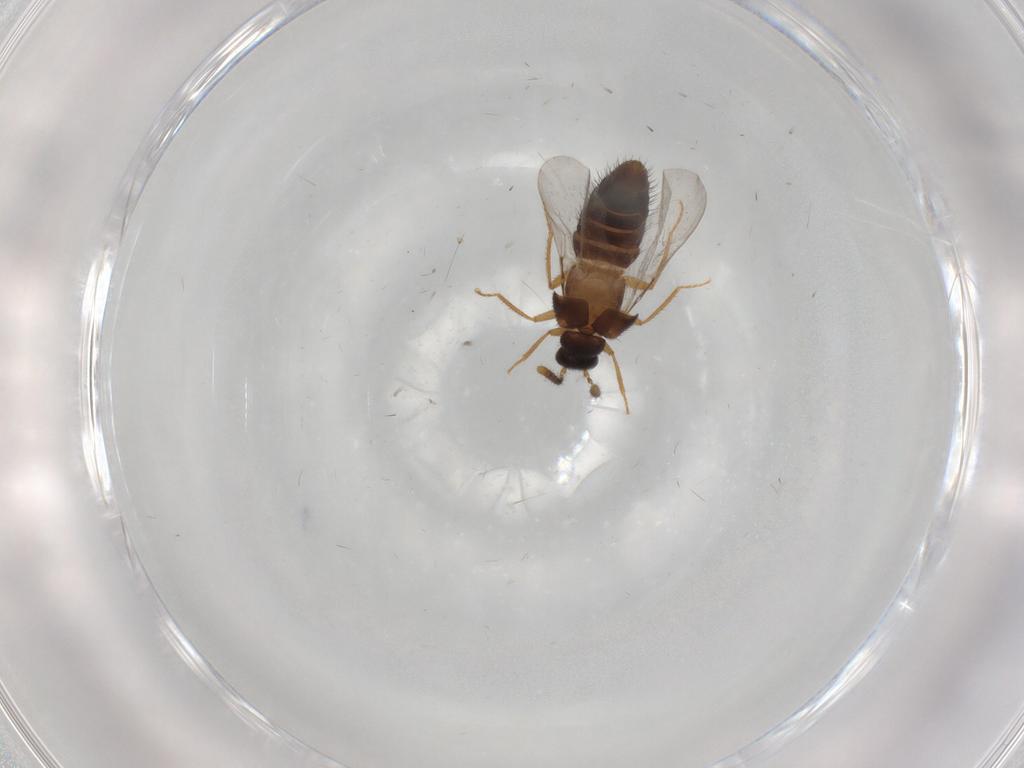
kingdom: Animalia
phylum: Arthropoda
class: Insecta
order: Coleoptera
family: Staphylinidae
